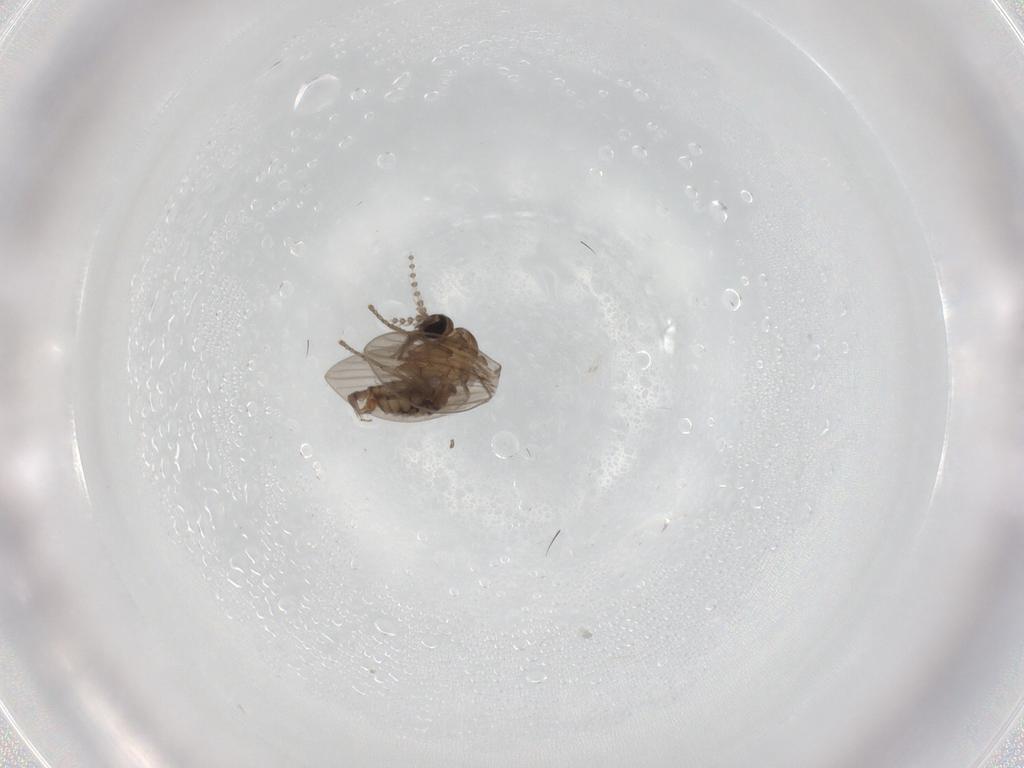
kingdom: Animalia
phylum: Arthropoda
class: Insecta
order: Diptera
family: Psychodidae
